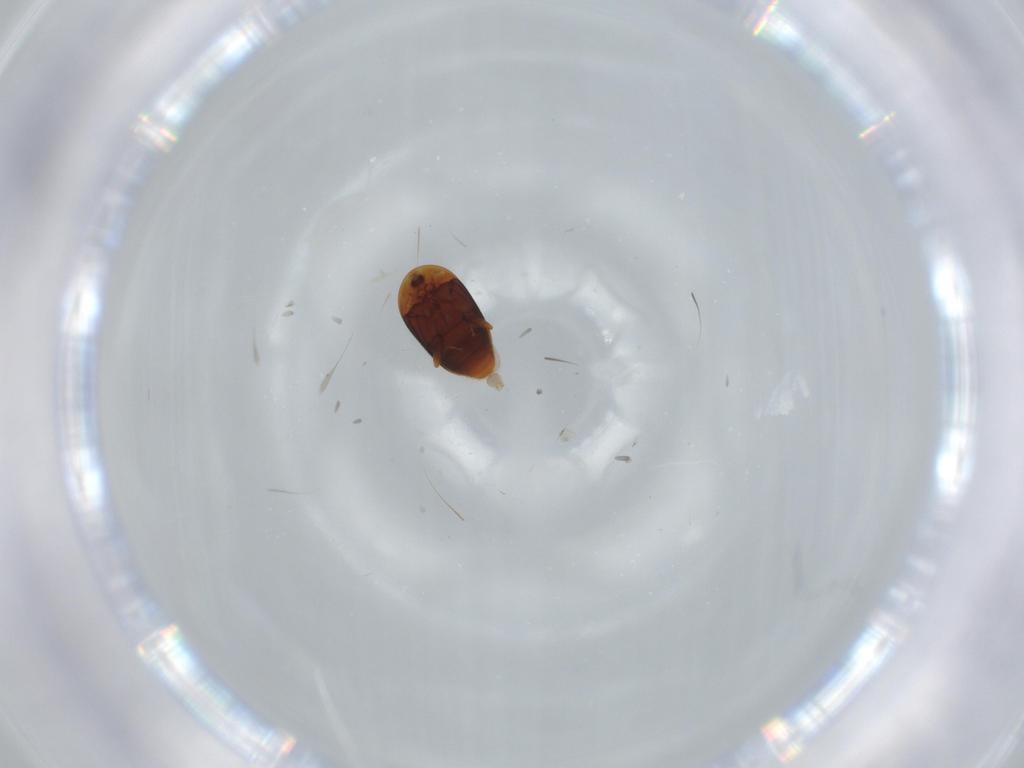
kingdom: Animalia
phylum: Arthropoda
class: Insecta
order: Coleoptera
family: Corylophidae
